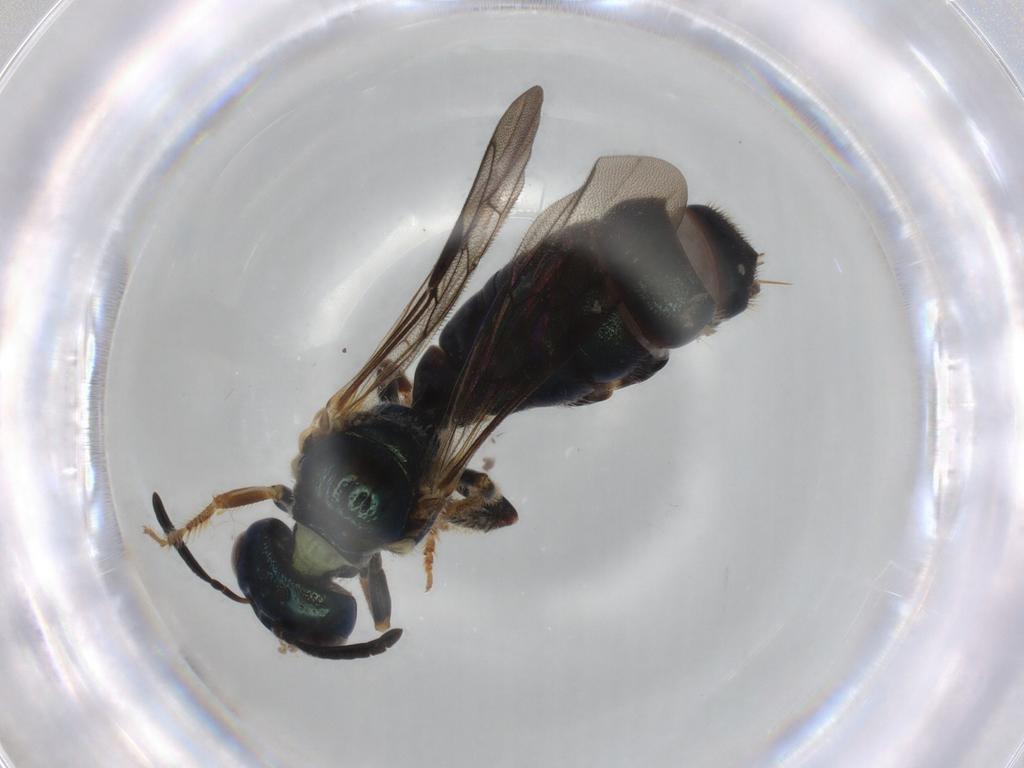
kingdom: Animalia
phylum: Arthropoda
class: Insecta
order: Hymenoptera
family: Apidae
